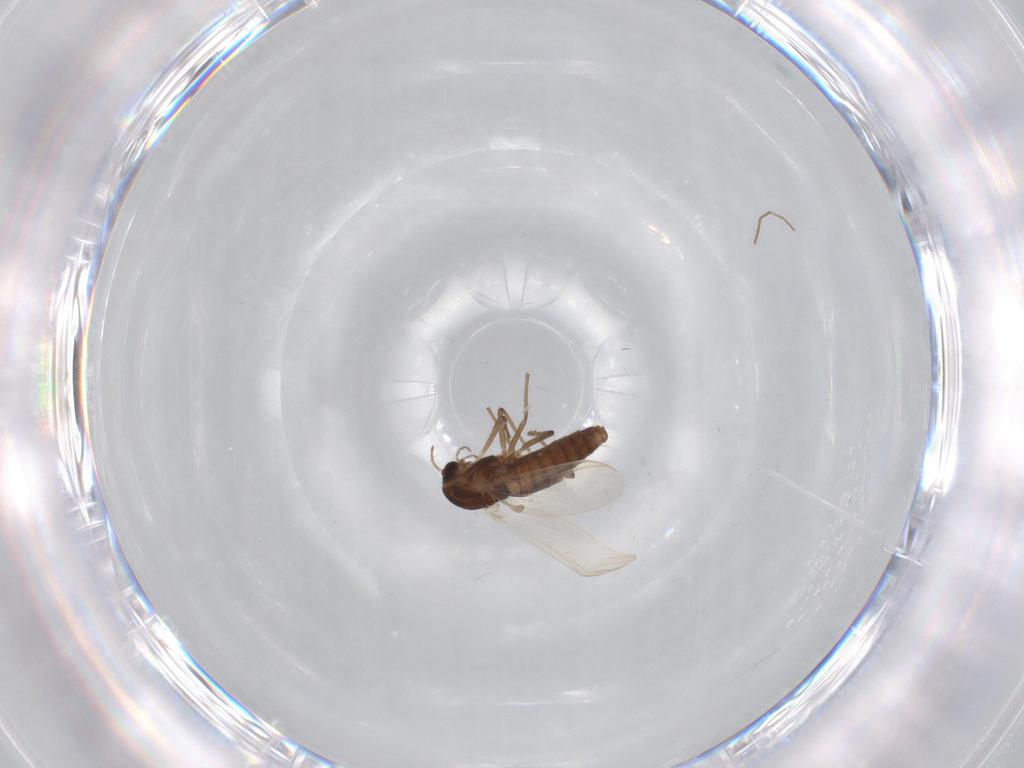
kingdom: Animalia
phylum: Arthropoda
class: Insecta
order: Diptera
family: Chironomidae
